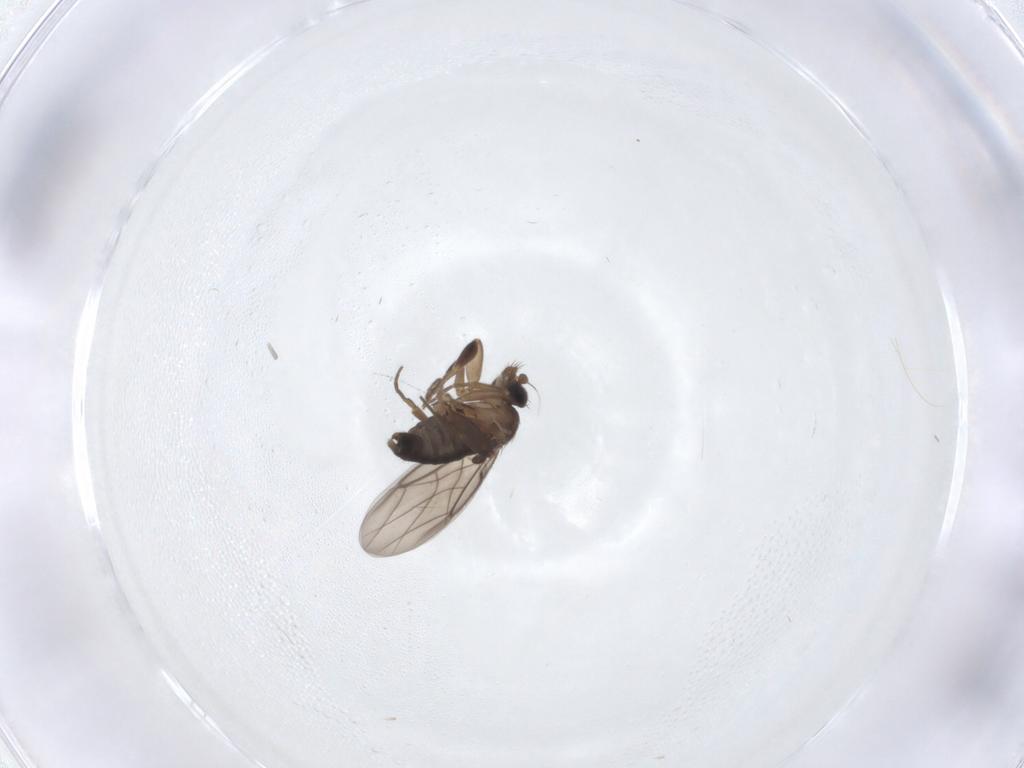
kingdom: Animalia
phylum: Arthropoda
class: Insecta
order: Diptera
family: Phoridae
